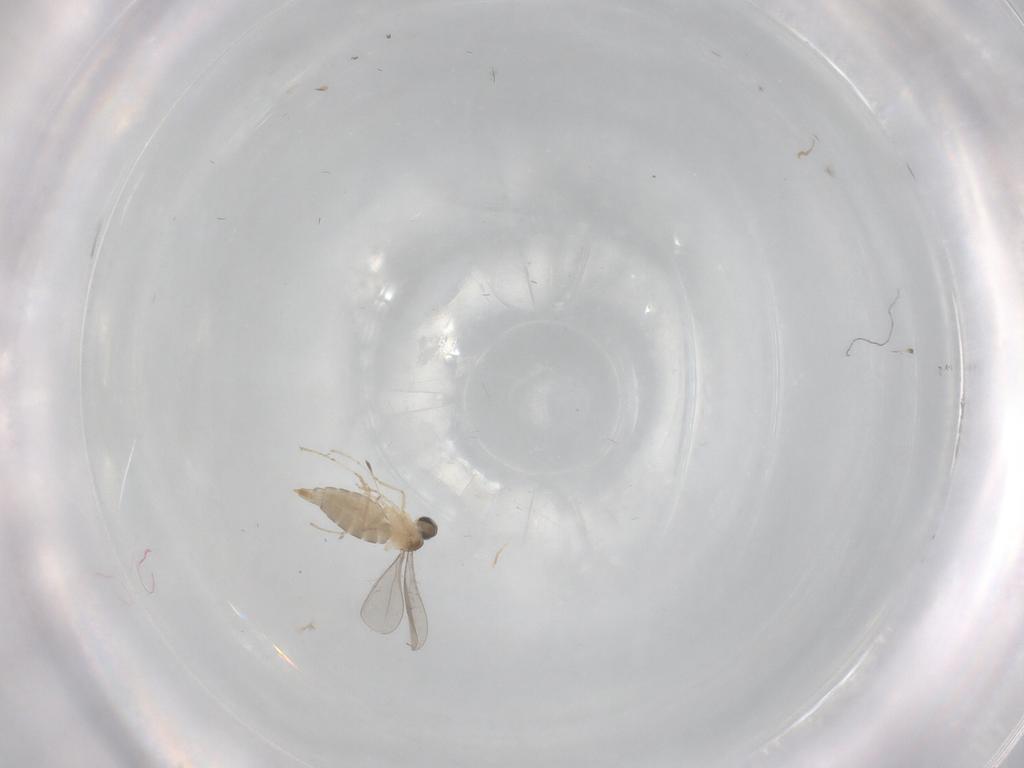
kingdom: Animalia
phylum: Arthropoda
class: Insecta
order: Diptera
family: Cecidomyiidae
